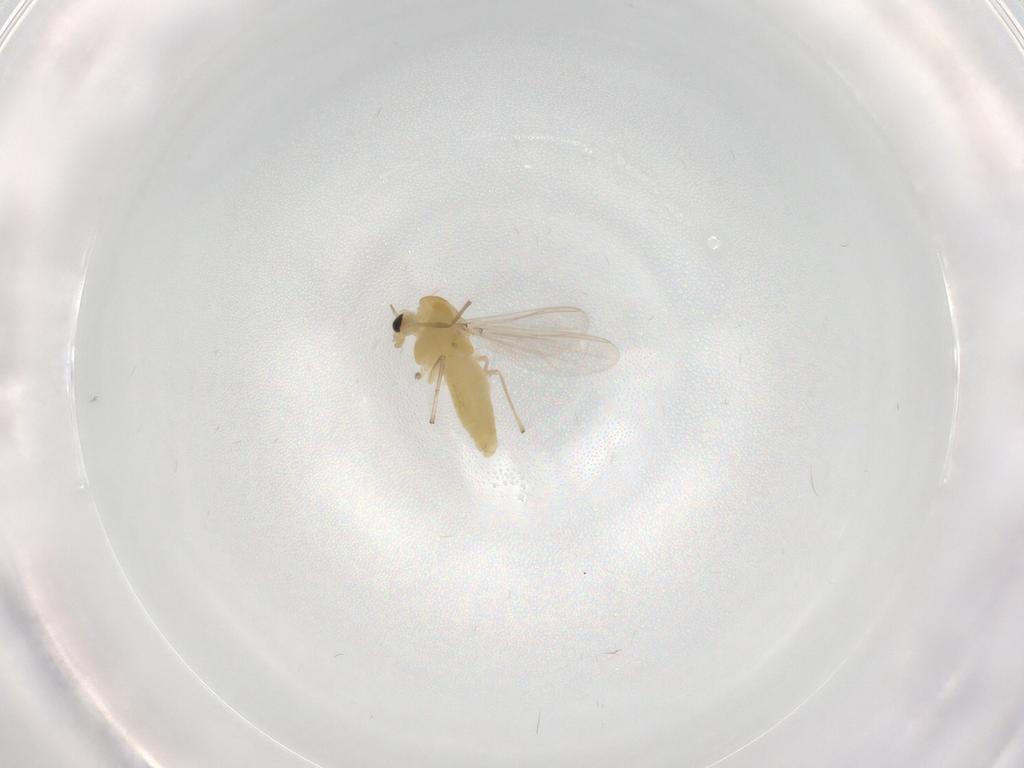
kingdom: Animalia
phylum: Arthropoda
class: Insecta
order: Diptera
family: Chironomidae
